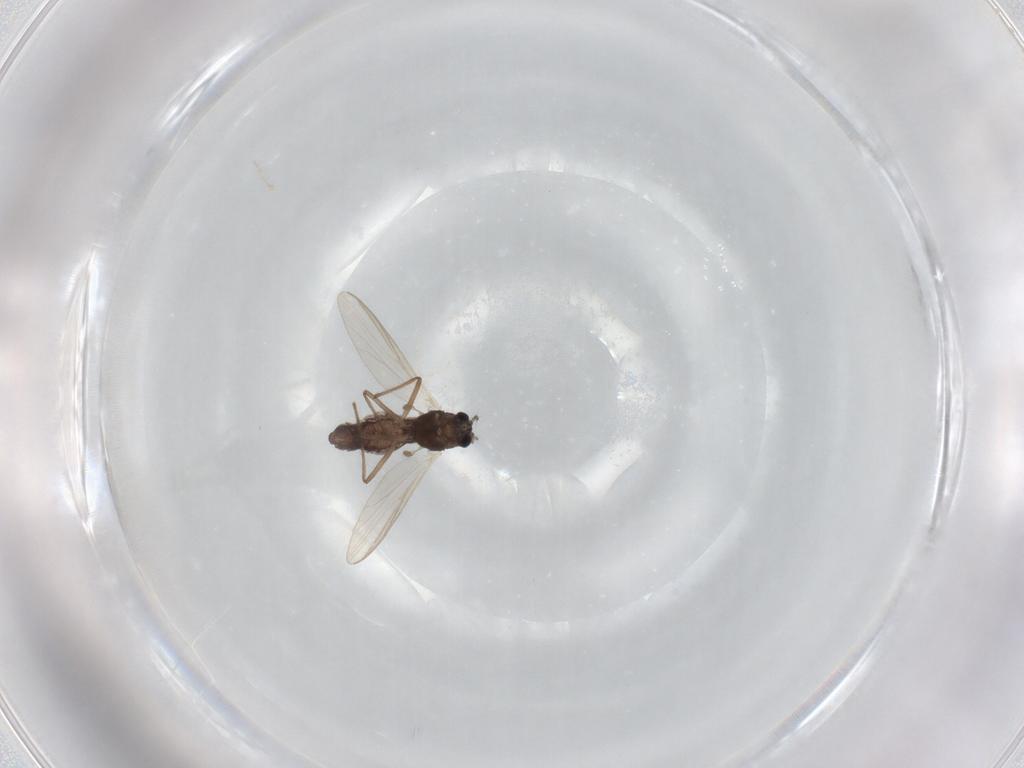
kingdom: Animalia
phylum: Arthropoda
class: Insecta
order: Diptera
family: Chironomidae
